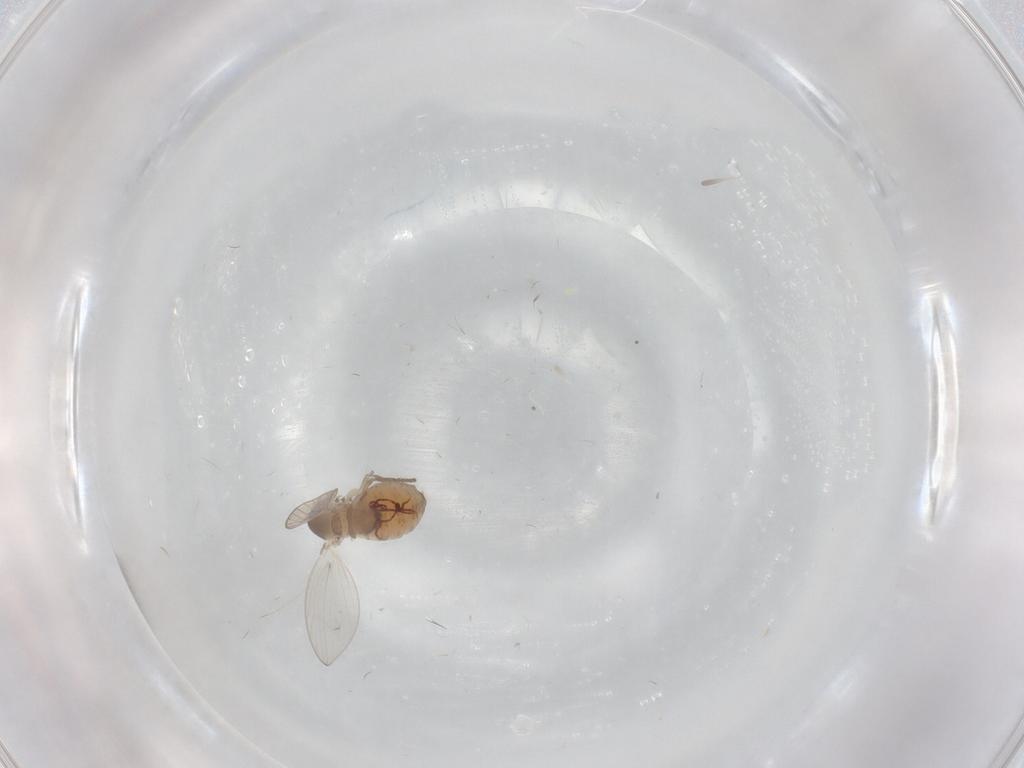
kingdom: Animalia
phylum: Arthropoda
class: Insecta
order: Diptera
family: Psychodidae
